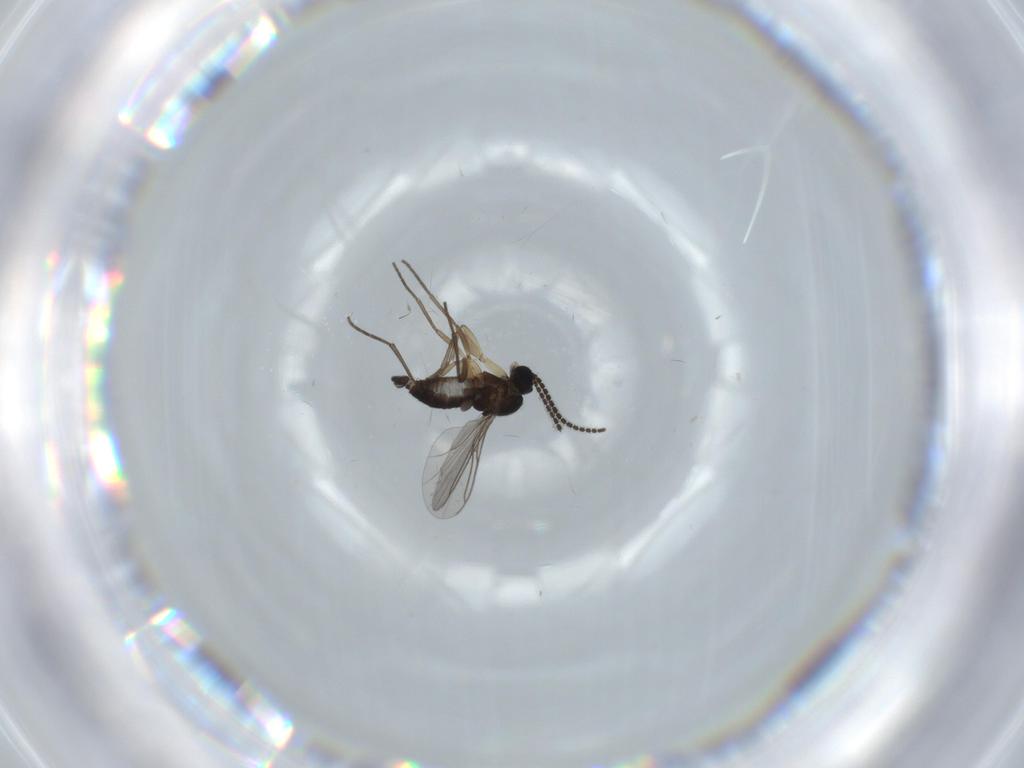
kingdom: Animalia
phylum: Arthropoda
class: Insecta
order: Diptera
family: Sciaridae
